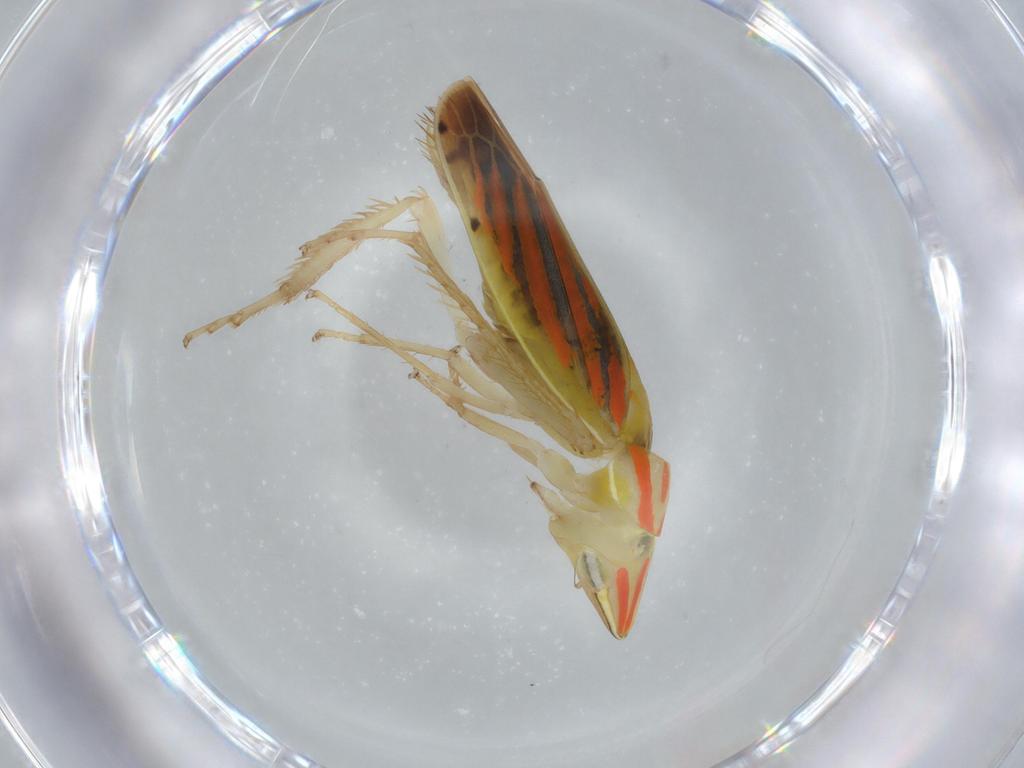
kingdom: Animalia
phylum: Arthropoda
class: Insecta
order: Hemiptera
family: Cicadellidae
